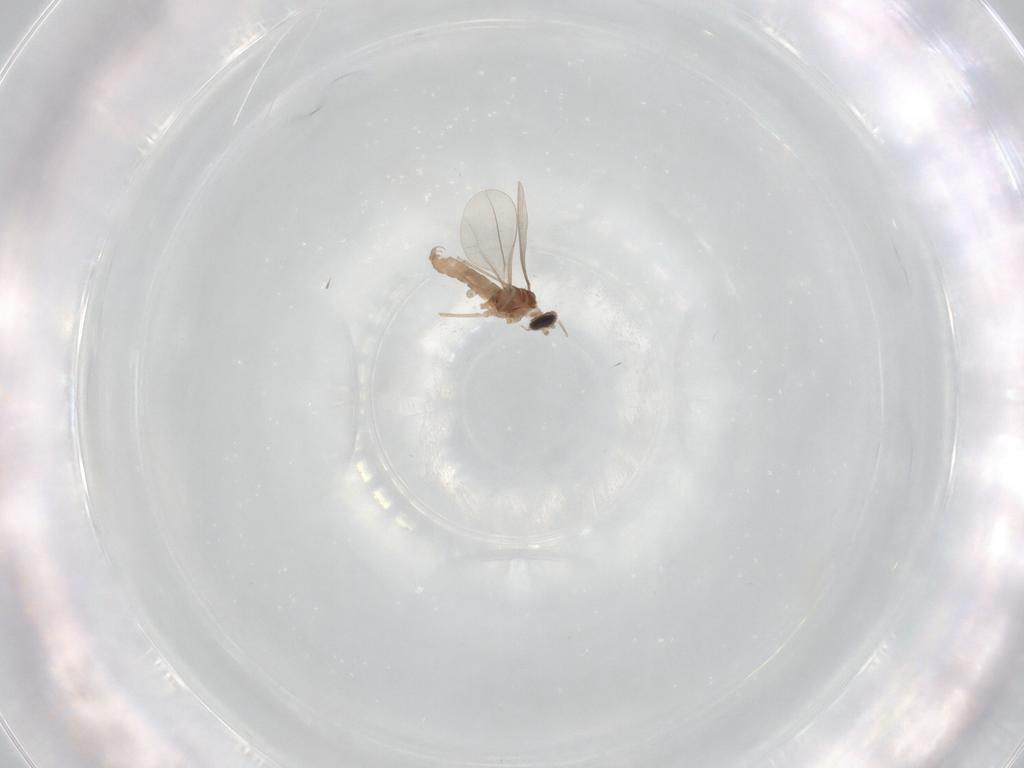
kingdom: Animalia
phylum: Arthropoda
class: Insecta
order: Diptera
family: Cecidomyiidae
